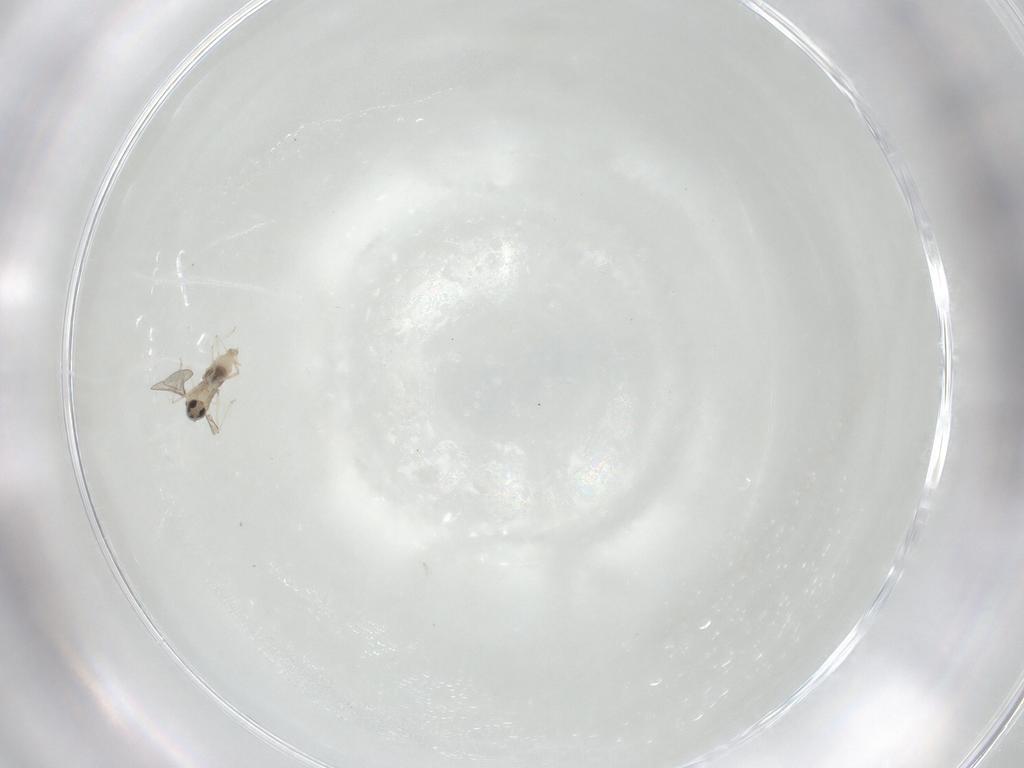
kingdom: Animalia
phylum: Arthropoda
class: Insecta
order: Diptera
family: Cecidomyiidae
